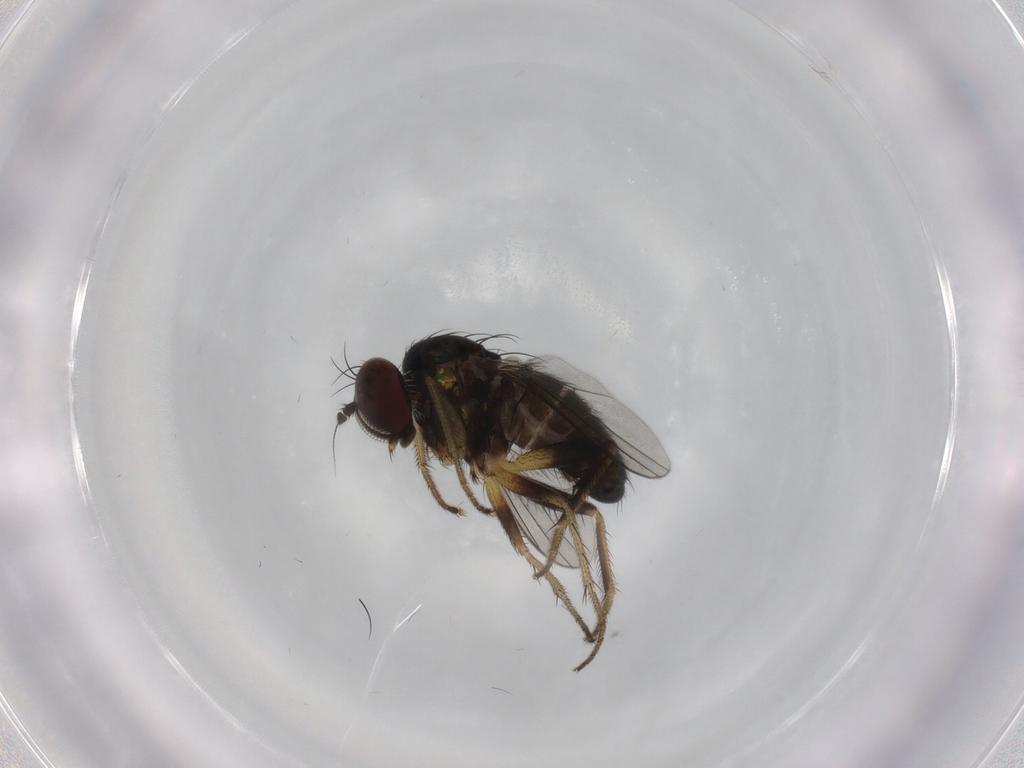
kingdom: Animalia
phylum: Arthropoda
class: Insecta
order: Diptera
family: Dolichopodidae
